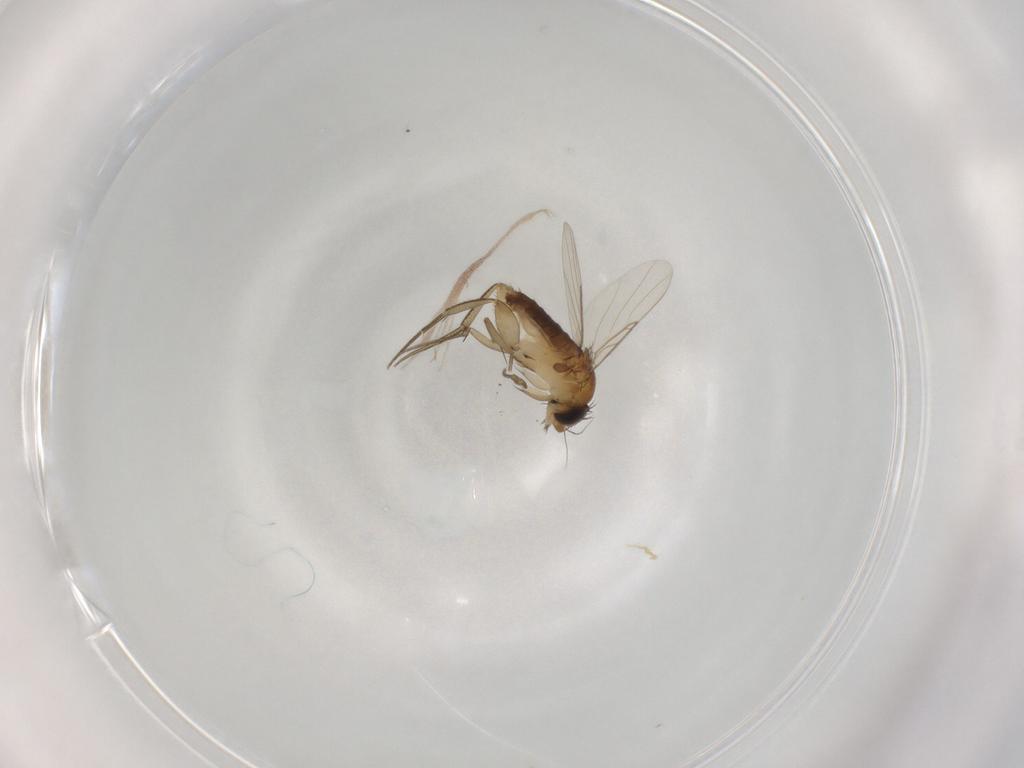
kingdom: Animalia
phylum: Arthropoda
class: Insecta
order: Diptera
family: Phoridae
